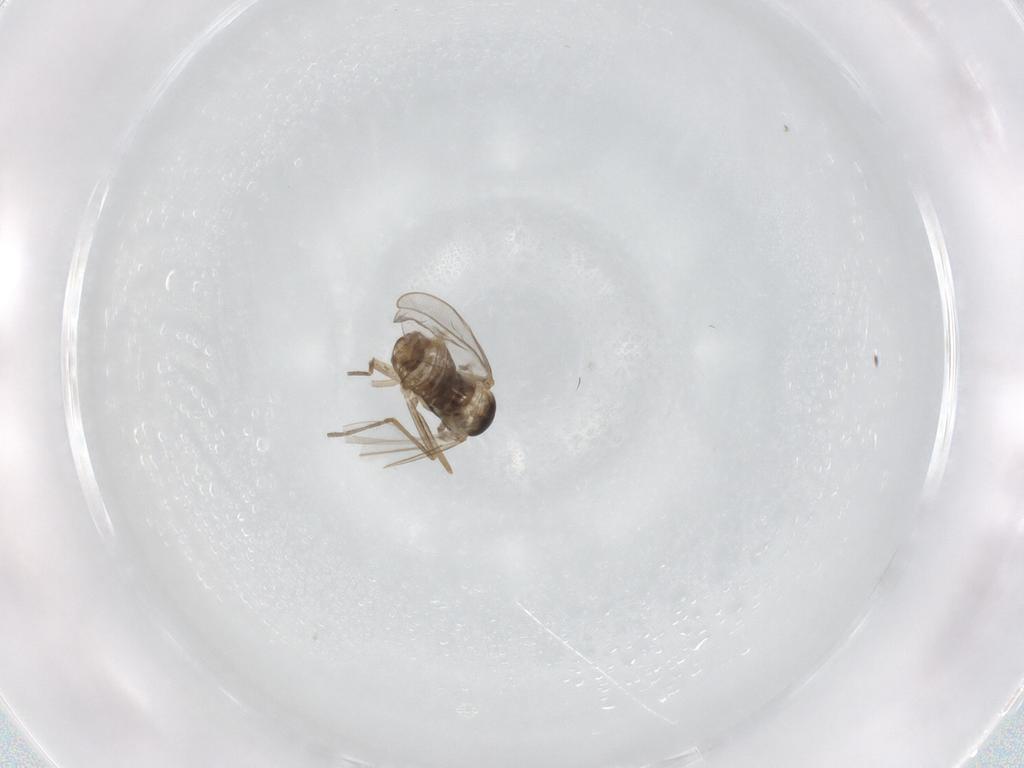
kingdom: Animalia
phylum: Arthropoda
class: Insecta
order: Diptera
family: Cecidomyiidae
